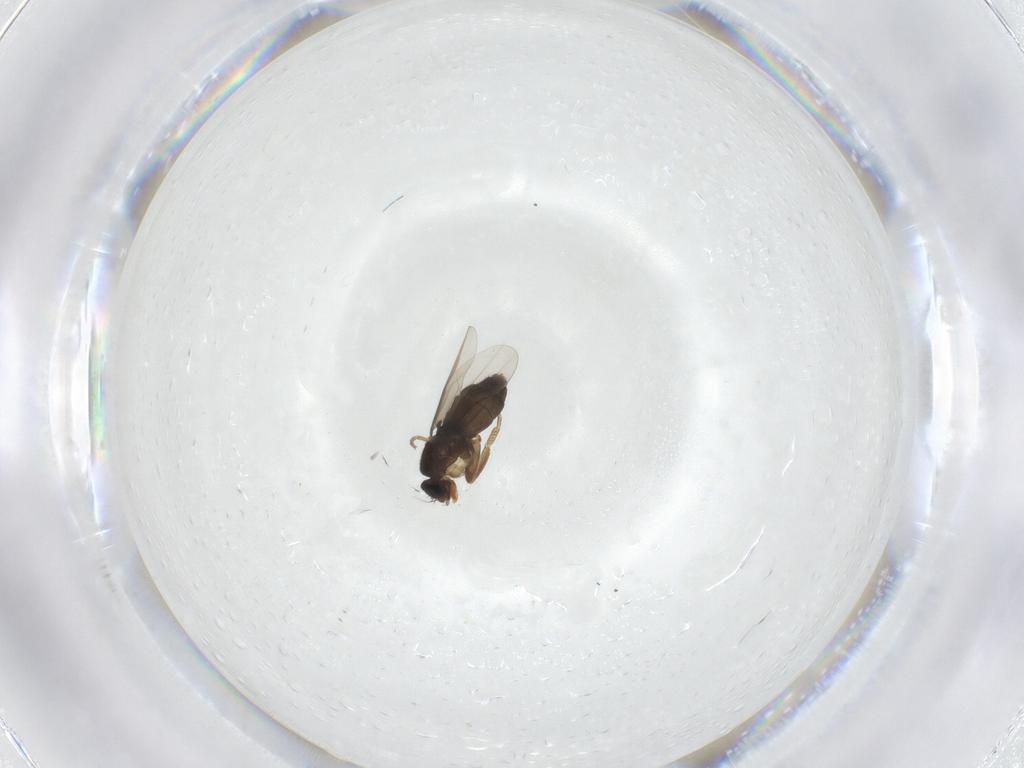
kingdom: Animalia
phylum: Arthropoda
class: Insecta
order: Diptera
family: Phoridae
